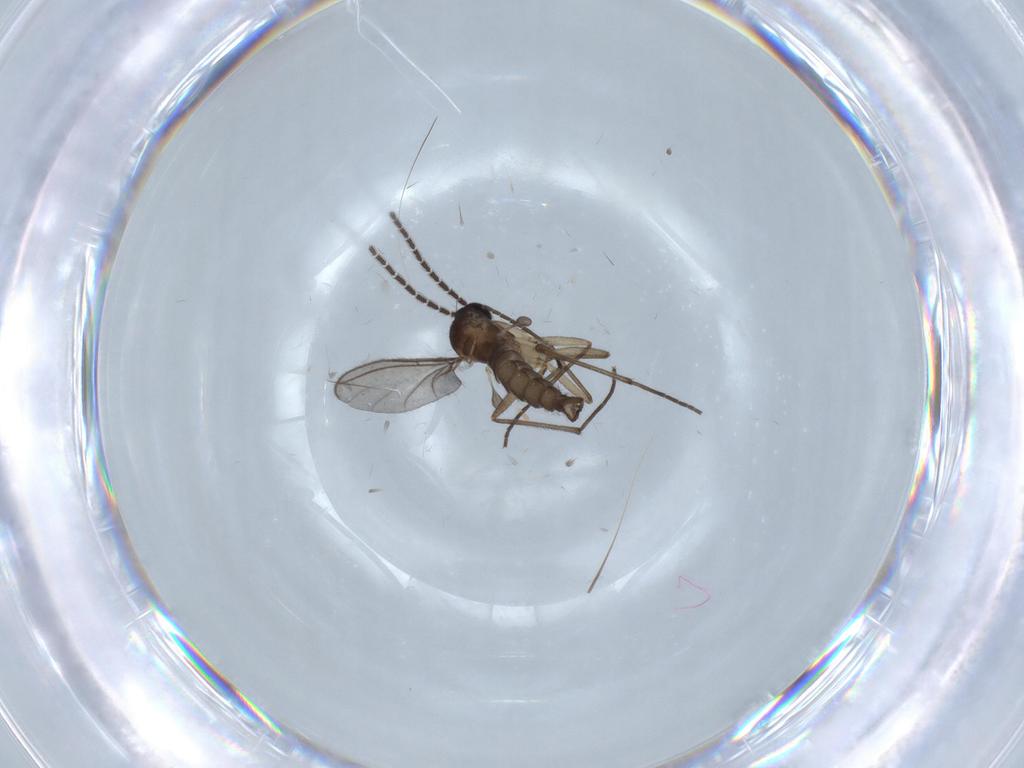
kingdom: Animalia
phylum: Arthropoda
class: Insecta
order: Diptera
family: Sciaridae
